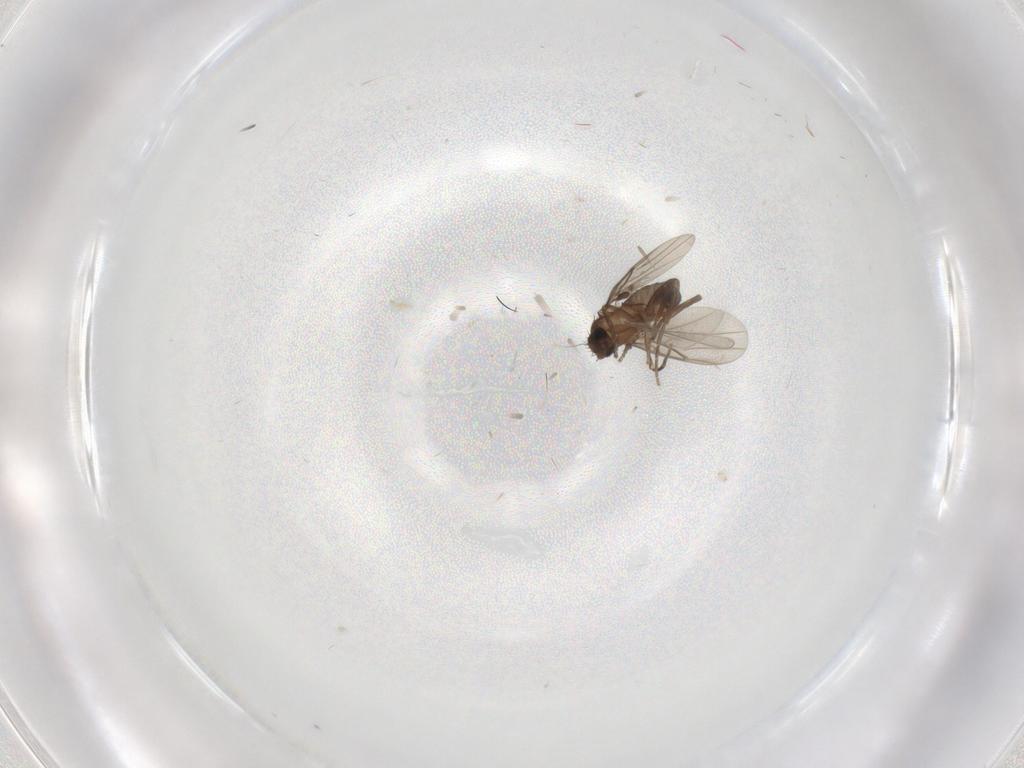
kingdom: Animalia
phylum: Arthropoda
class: Insecta
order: Diptera
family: Cecidomyiidae
